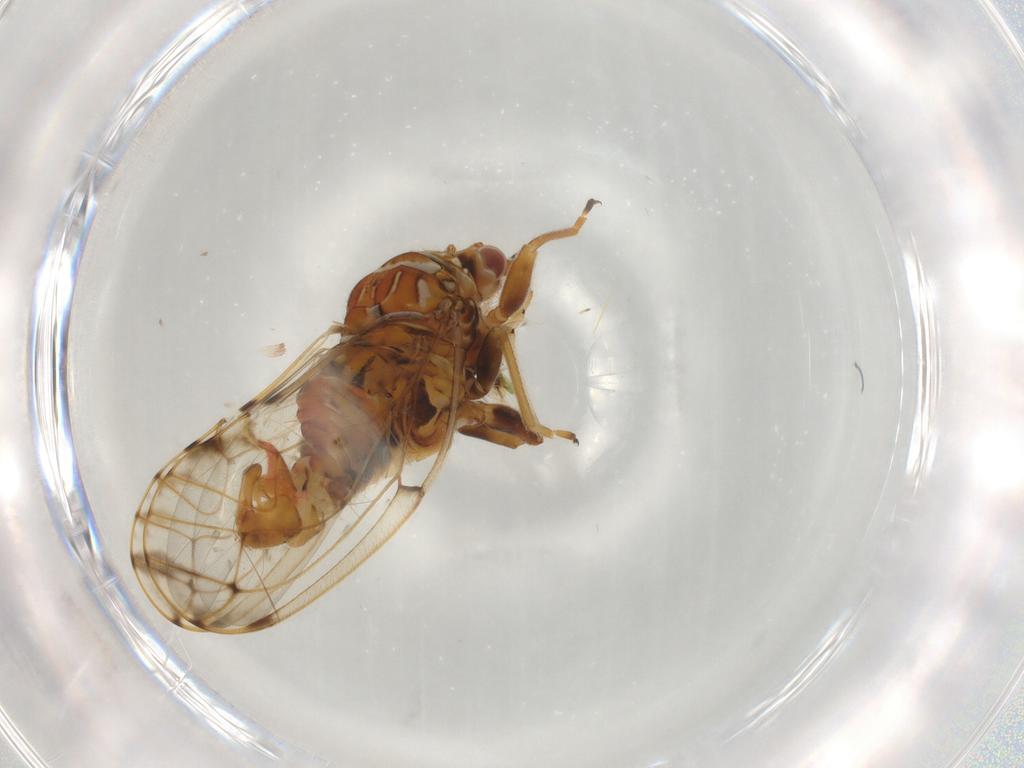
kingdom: Animalia
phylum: Arthropoda
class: Insecta
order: Hemiptera
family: Cicadellidae
